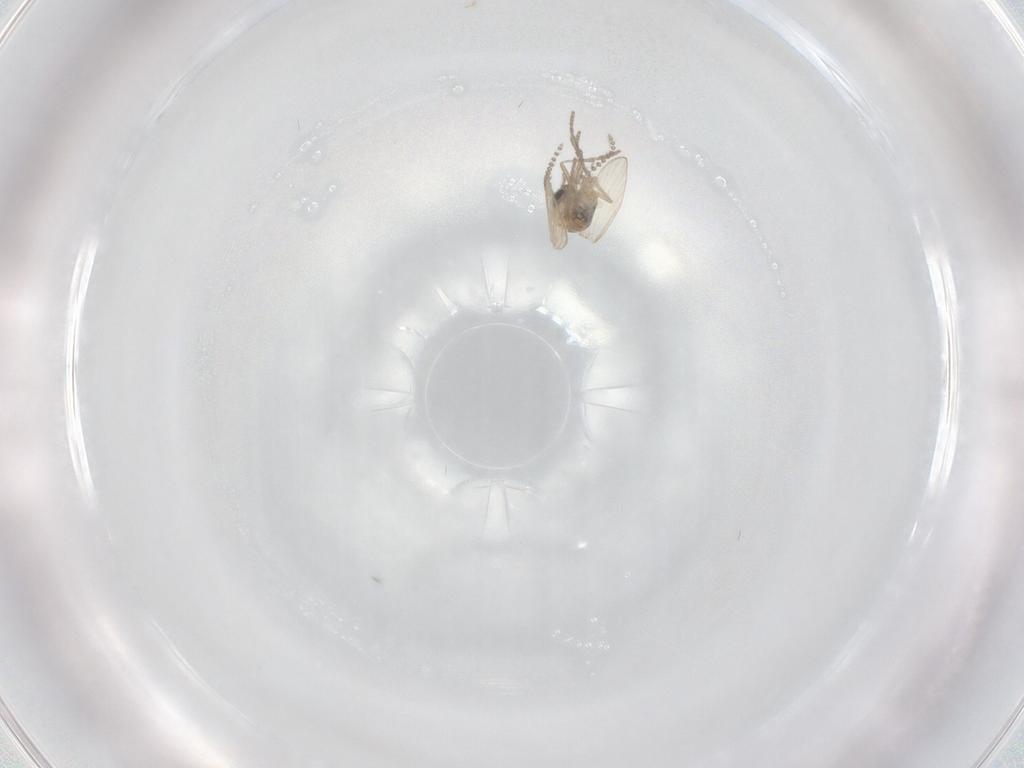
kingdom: Animalia
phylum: Arthropoda
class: Insecta
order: Diptera
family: Psychodidae
